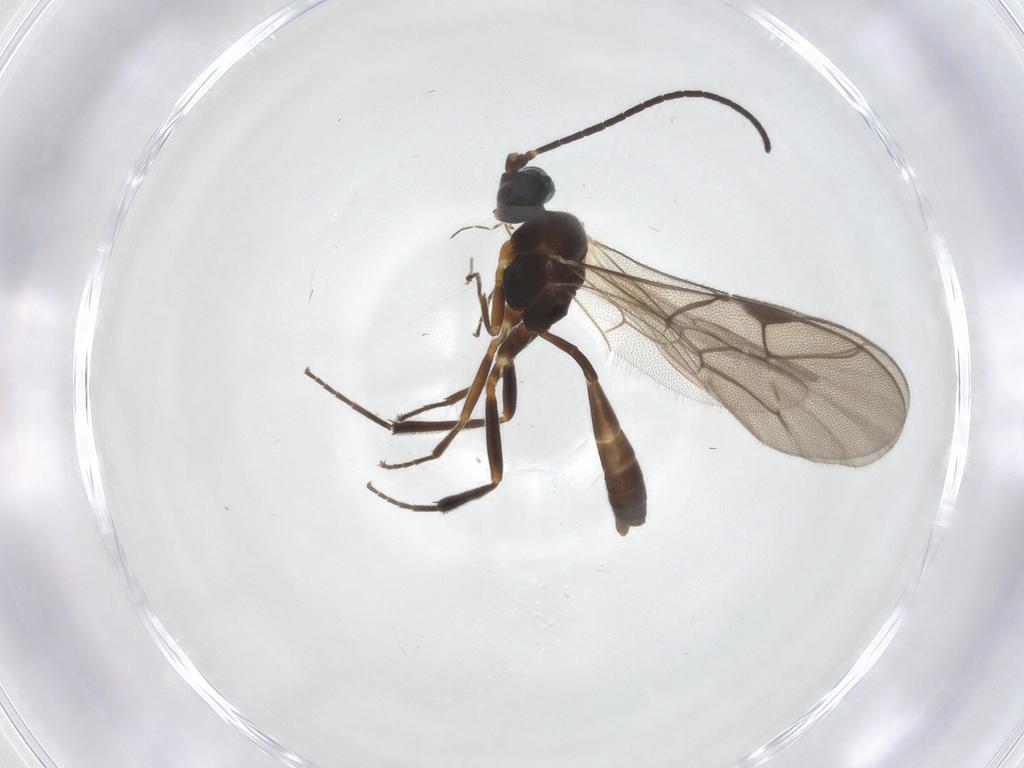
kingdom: Animalia
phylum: Arthropoda
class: Insecta
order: Hymenoptera
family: Ichneumonidae
